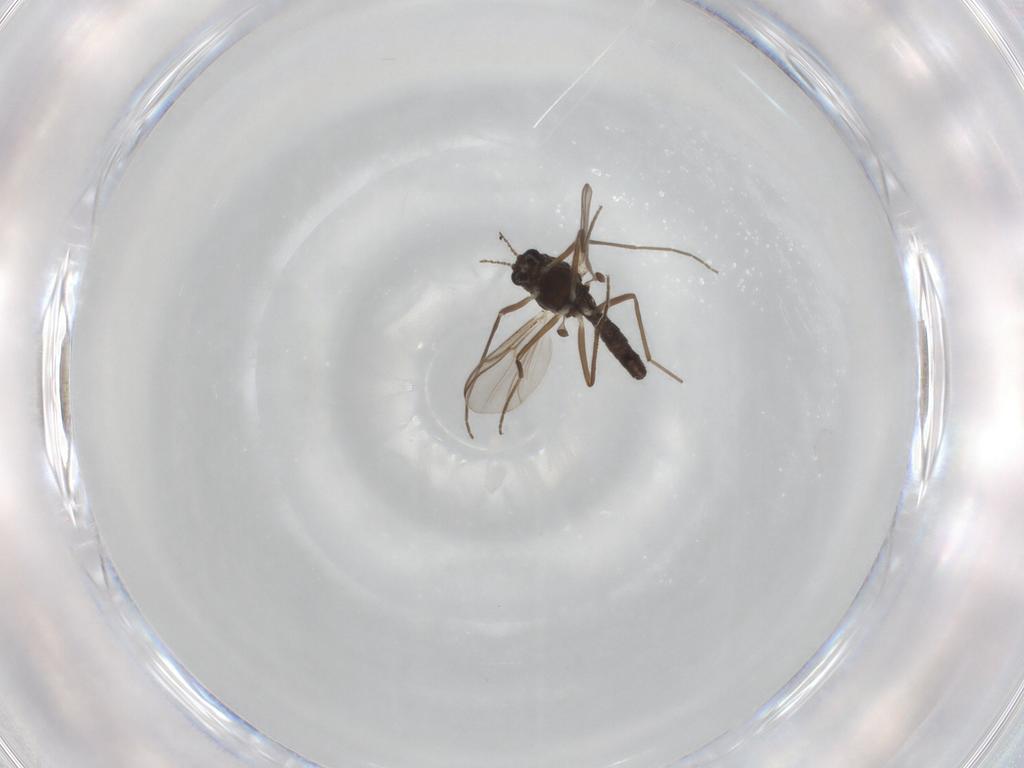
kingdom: Animalia
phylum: Arthropoda
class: Insecta
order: Diptera
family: Chironomidae
